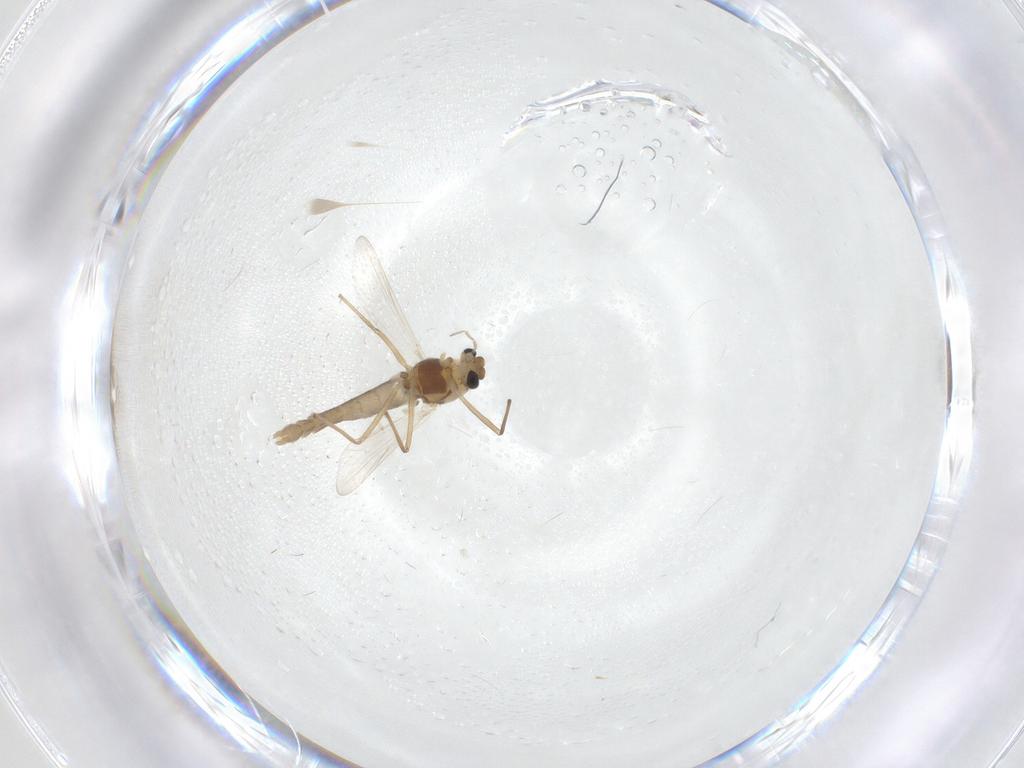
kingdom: Animalia
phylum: Arthropoda
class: Insecta
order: Diptera
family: Chironomidae
